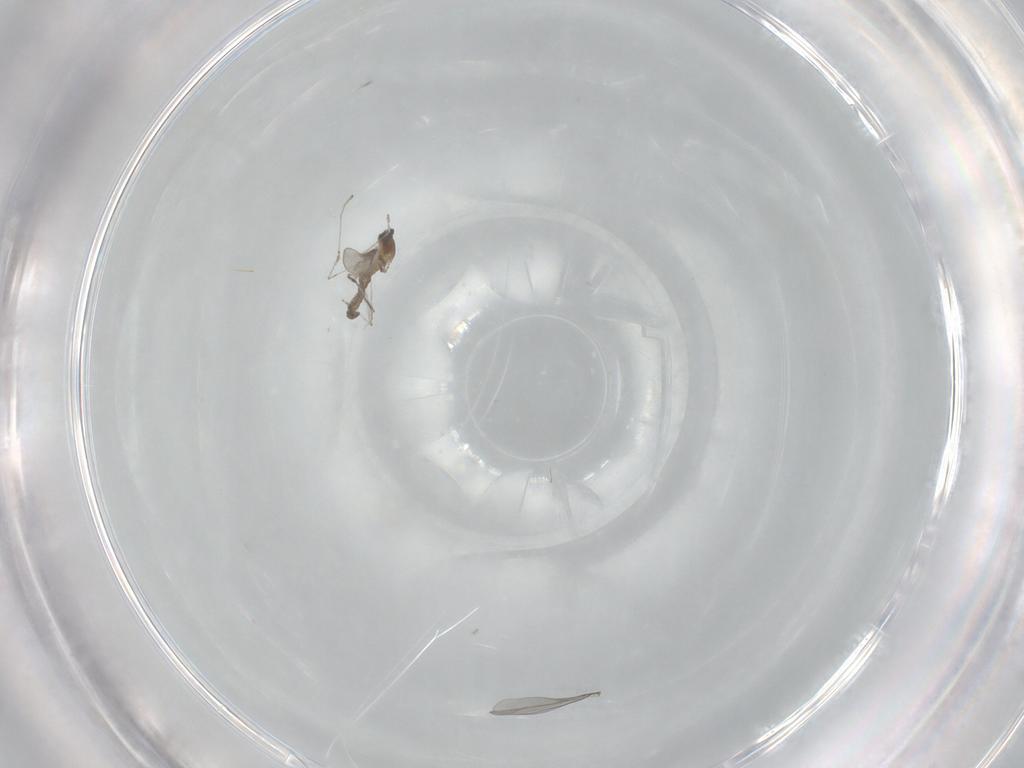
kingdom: Animalia
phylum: Arthropoda
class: Insecta
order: Diptera
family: Cecidomyiidae
